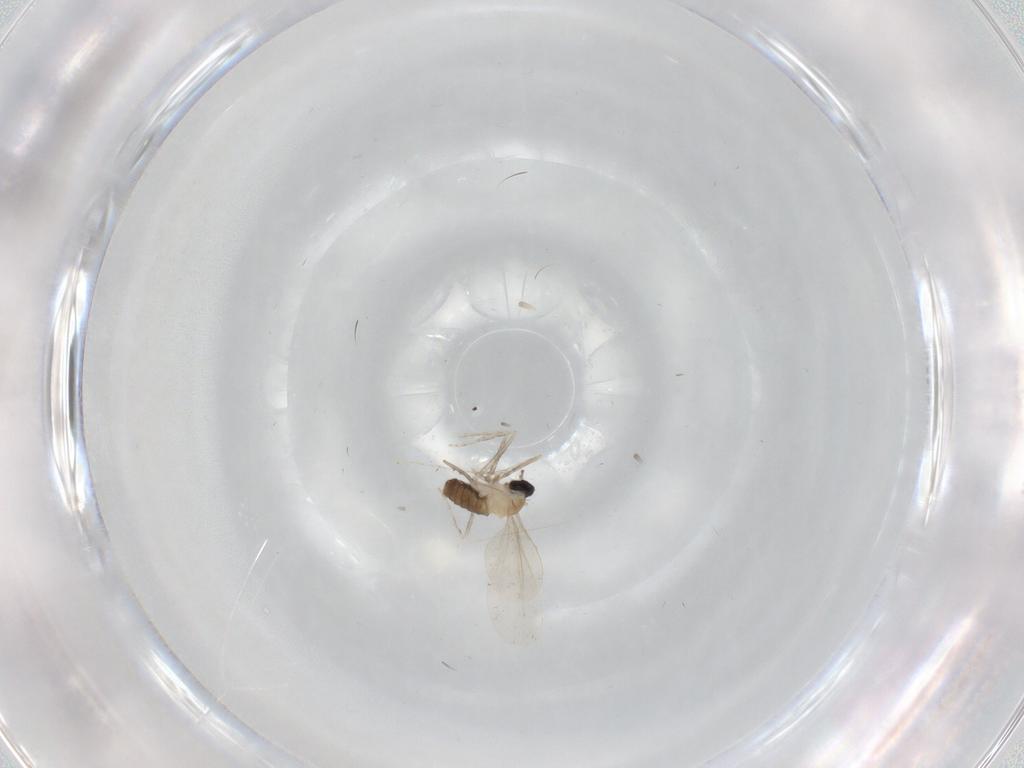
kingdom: Animalia
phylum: Arthropoda
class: Insecta
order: Diptera
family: Cecidomyiidae
